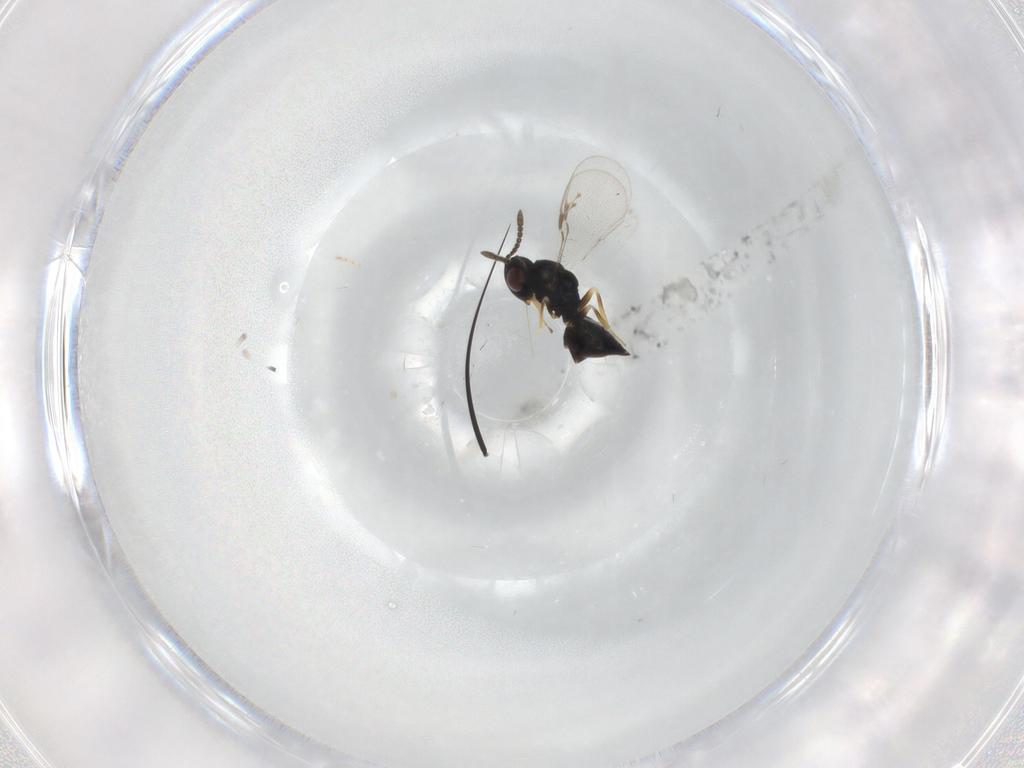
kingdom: Animalia
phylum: Arthropoda
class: Insecta
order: Hymenoptera
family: Pteromalidae
